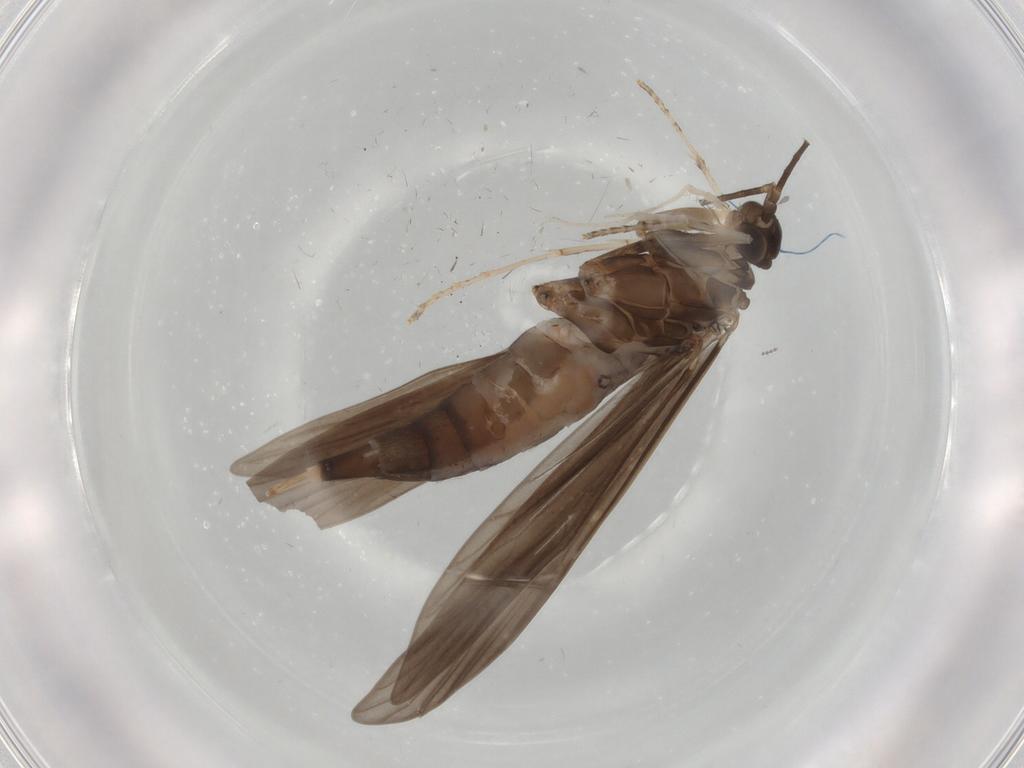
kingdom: Animalia
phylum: Arthropoda
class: Insecta
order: Trichoptera
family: Xiphocentronidae
